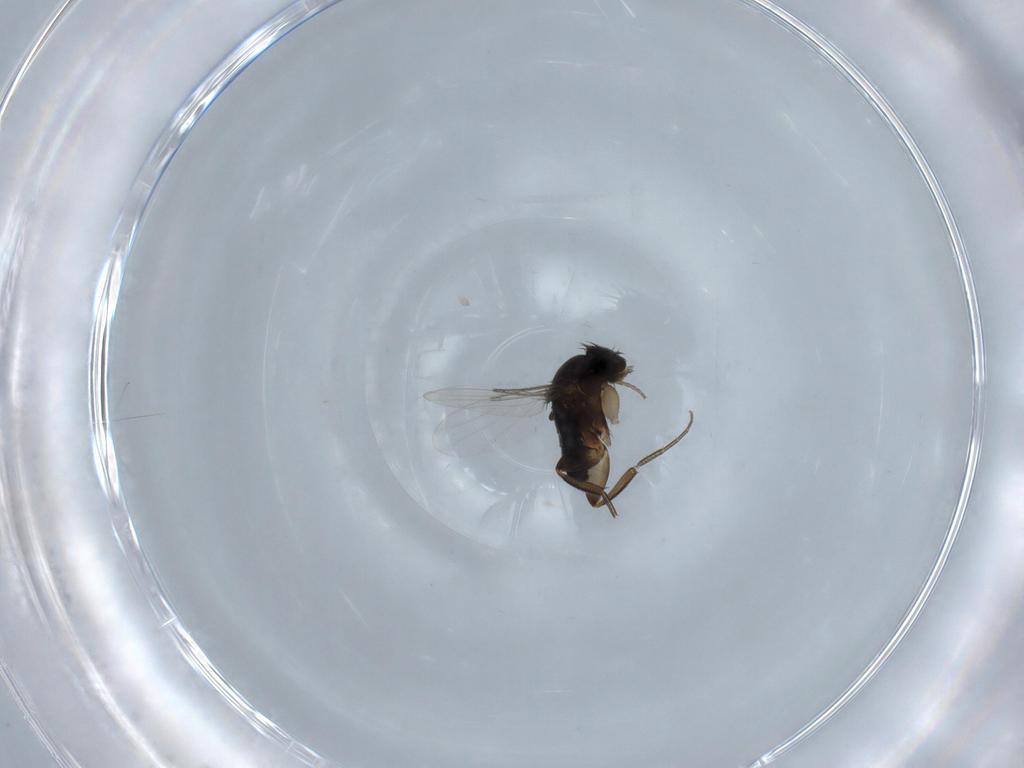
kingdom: Animalia
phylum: Arthropoda
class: Insecta
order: Diptera
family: Phoridae
